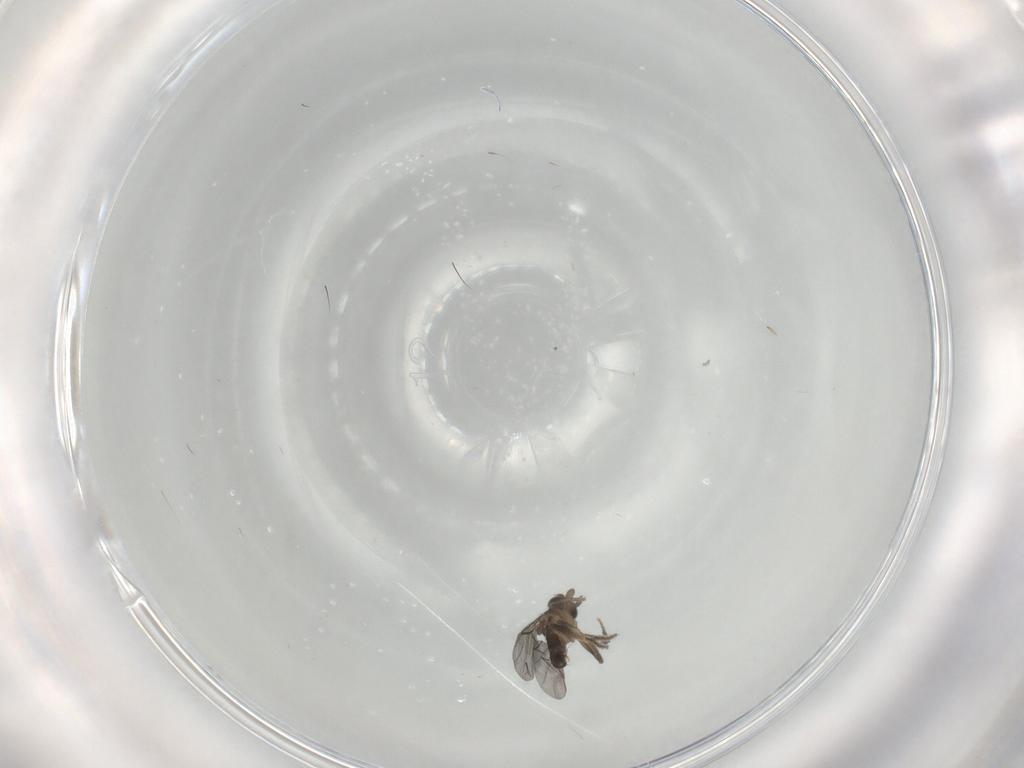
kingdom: Animalia
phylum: Arthropoda
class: Insecta
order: Diptera
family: Phoridae
